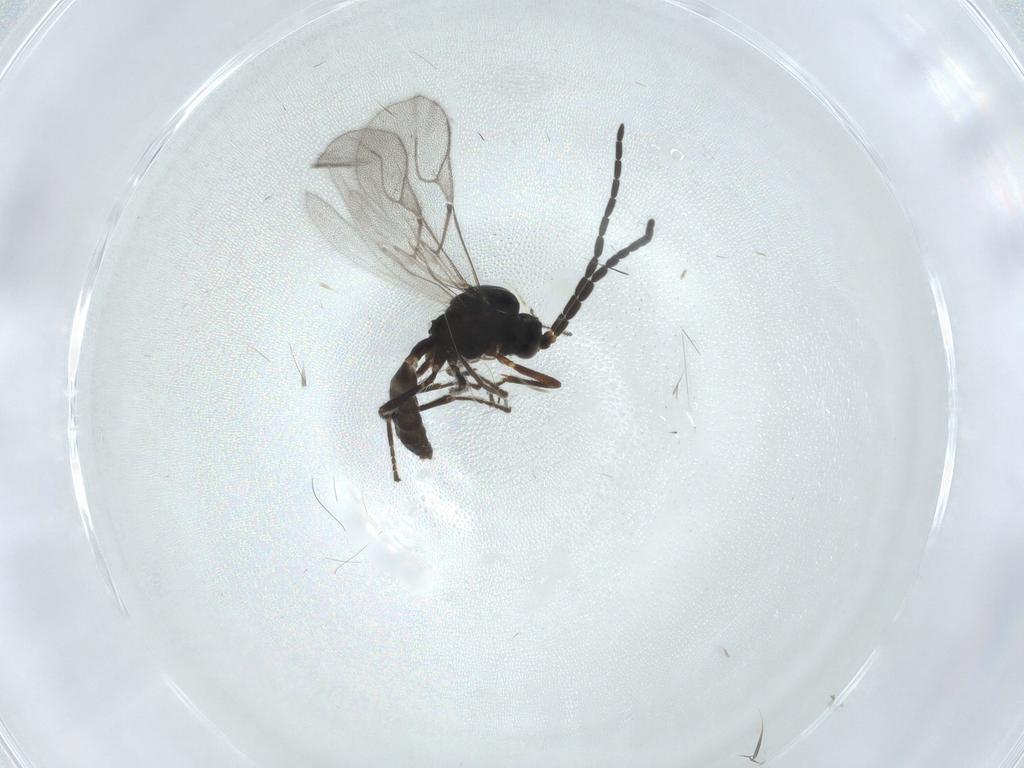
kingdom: Animalia
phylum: Arthropoda
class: Insecta
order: Hymenoptera
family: Braconidae
